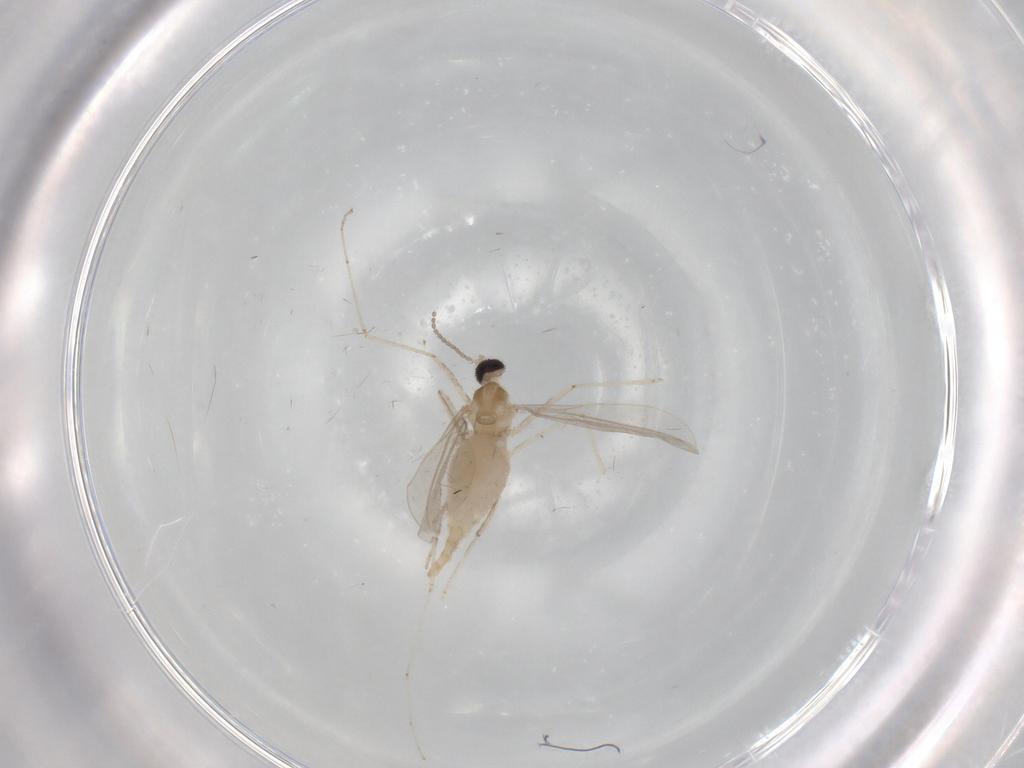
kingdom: Animalia
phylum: Arthropoda
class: Insecta
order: Diptera
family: Cecidomyiidae
